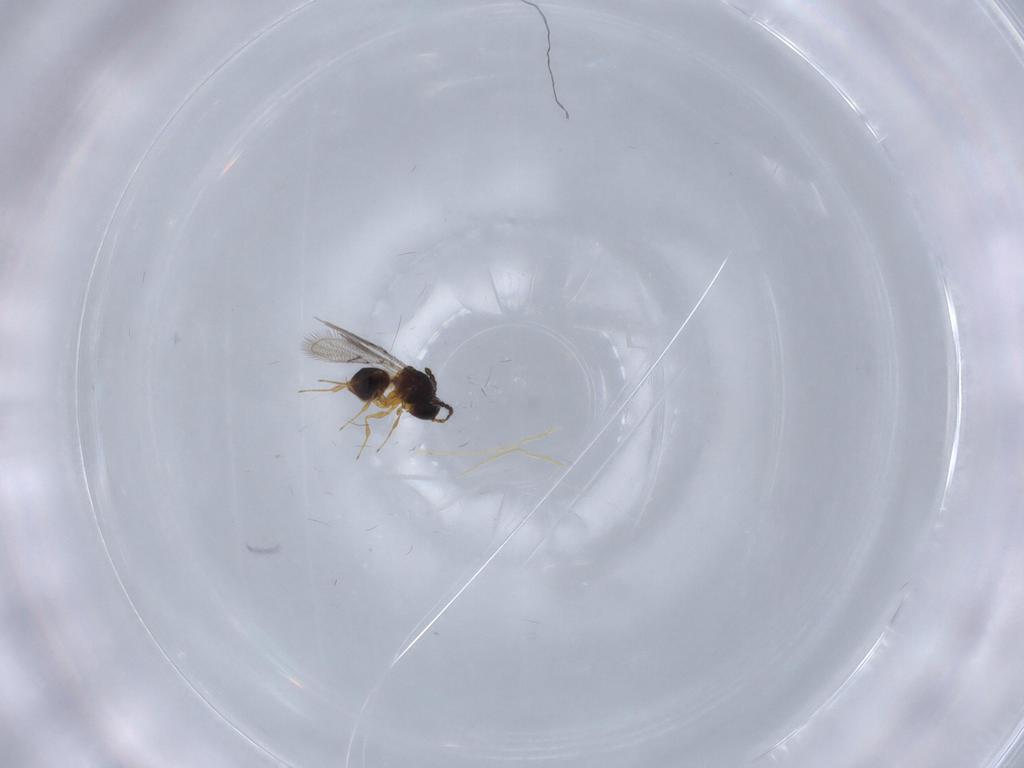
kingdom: Animalia
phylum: Arthropoda
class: Insecta
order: Hymenoptera
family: Figitidae
